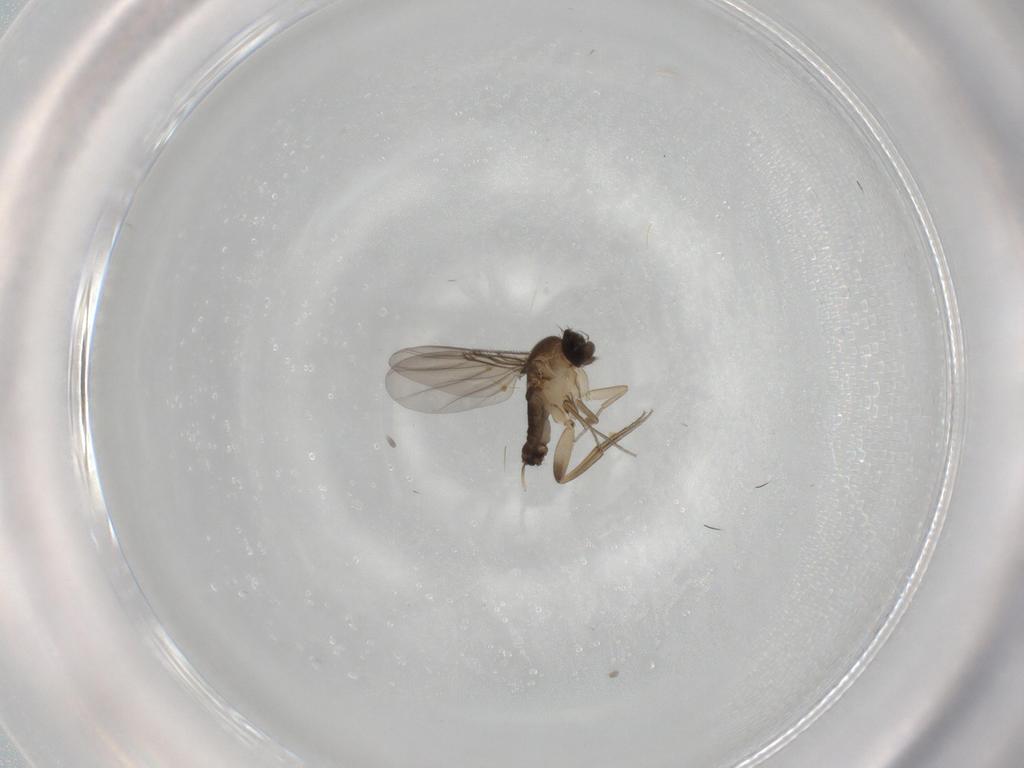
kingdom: Animalia
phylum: Arthropoda
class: Insecta
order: Diptera
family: Phoridae
